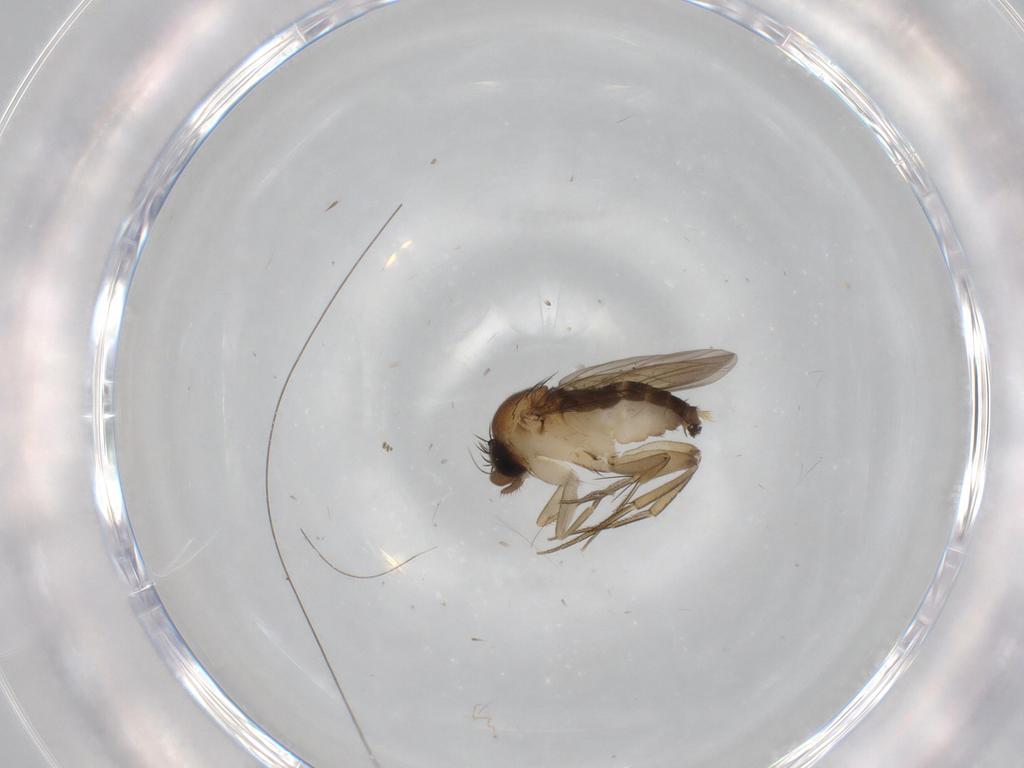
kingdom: Animalia
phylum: Arthropoda
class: Insecta
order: Diptera
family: Phoridae
